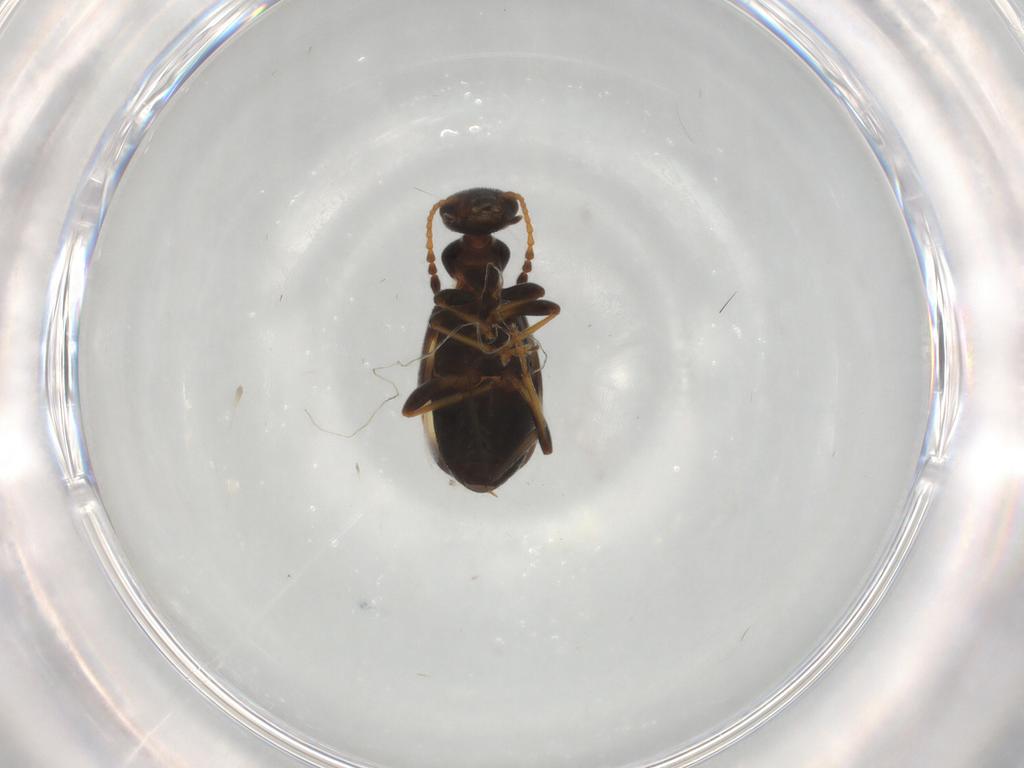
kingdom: Animalia
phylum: Arthropoda
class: Insecta
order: Coleoptera
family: Anthicidae
